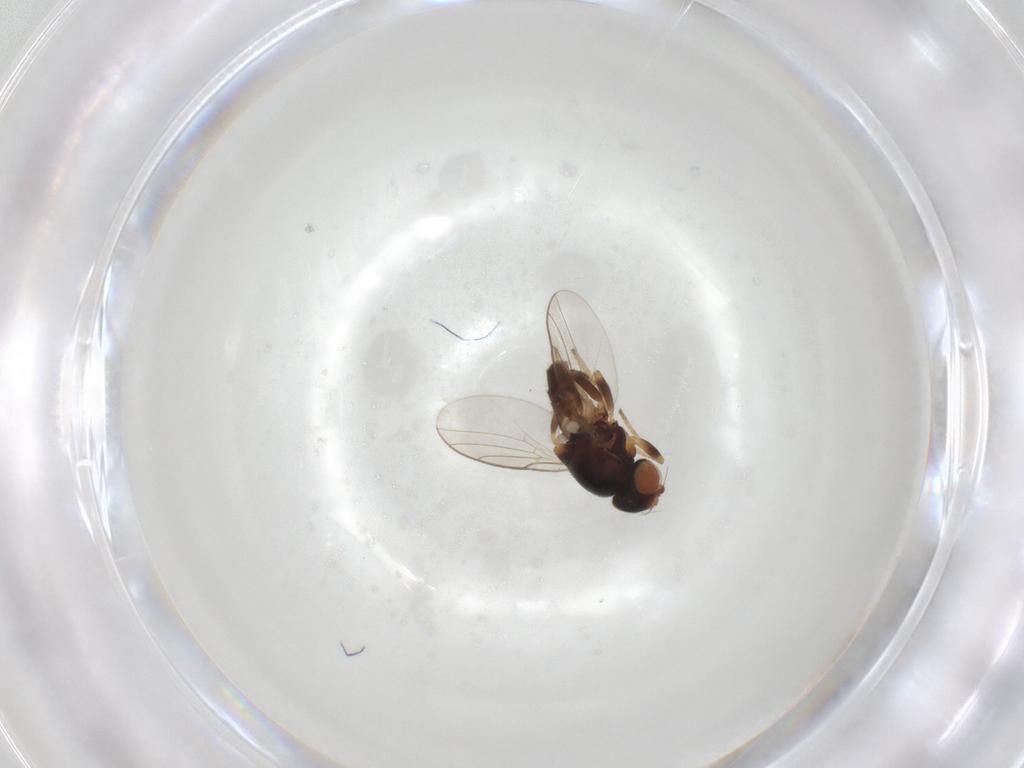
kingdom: Animalia
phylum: Arthropoda
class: Insecta
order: Diptera
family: Chloropidae
